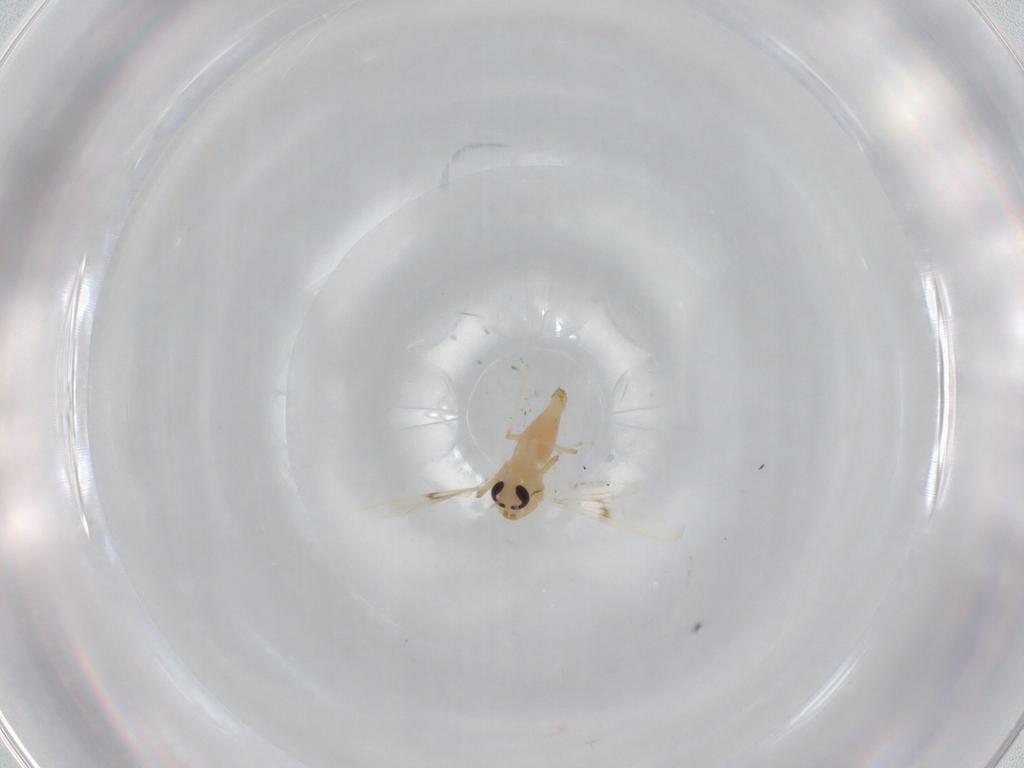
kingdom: Animalia
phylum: Arthropoda
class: Insecta
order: Diptera
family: Chironomidae
